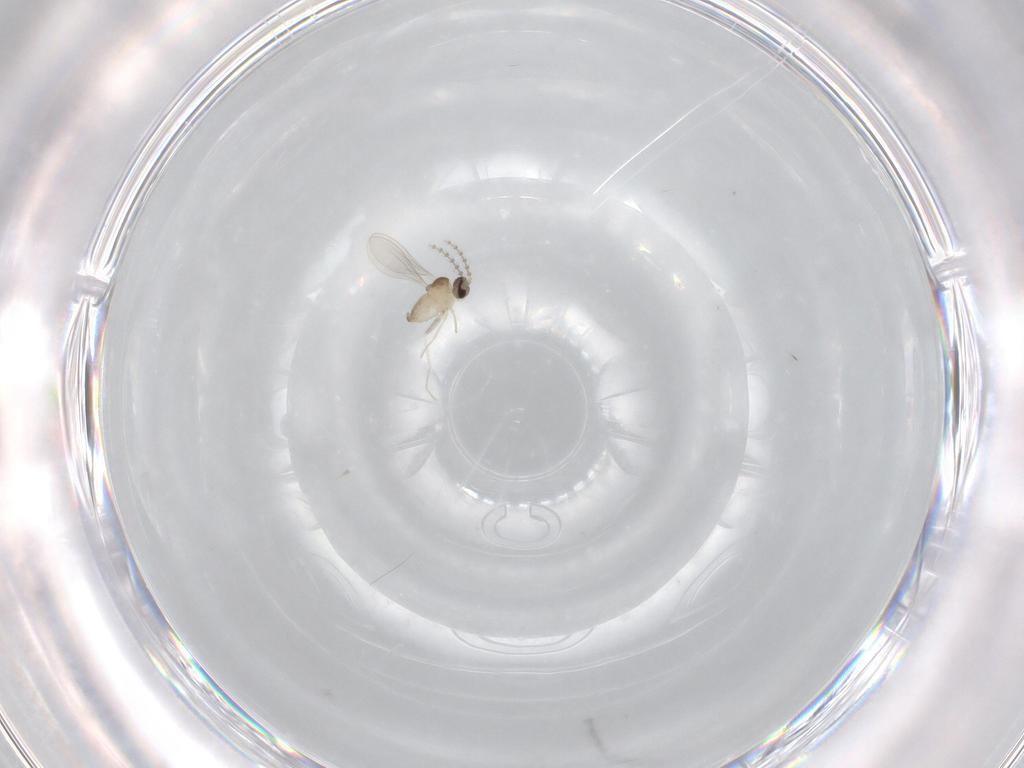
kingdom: Animalia
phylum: Arthropoda
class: Insecta
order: Diptera
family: Cecidomyiidae
